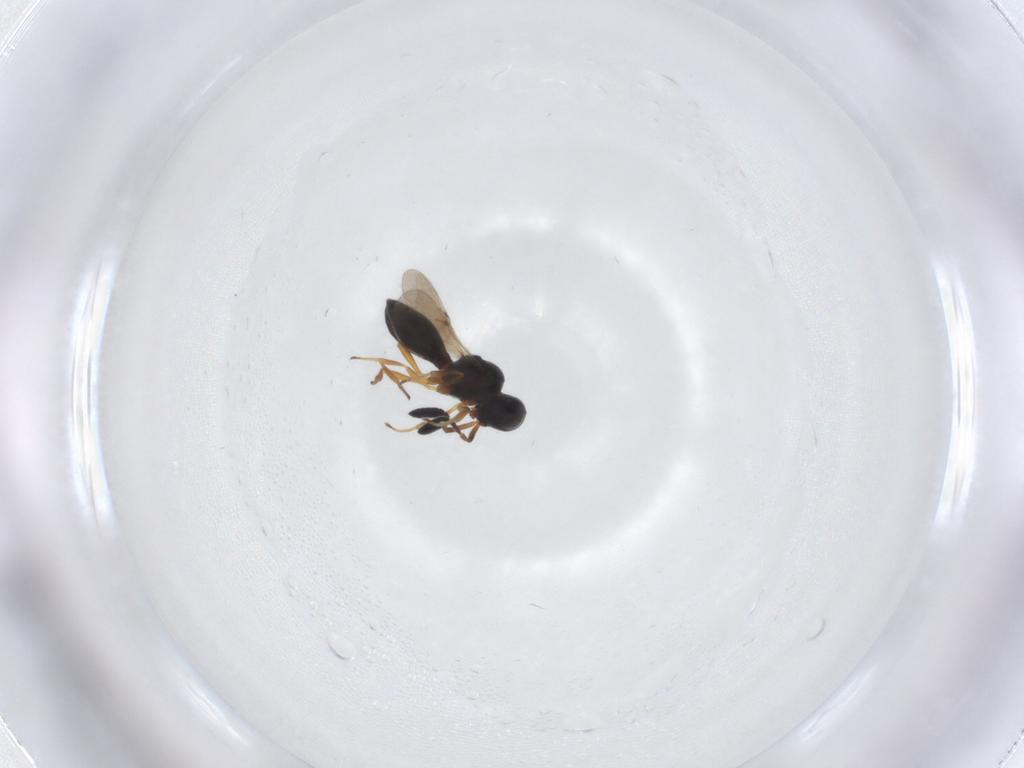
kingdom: Animalia
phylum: Arthropoda
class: Insecta
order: Hymenoptera
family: Scelionidae
